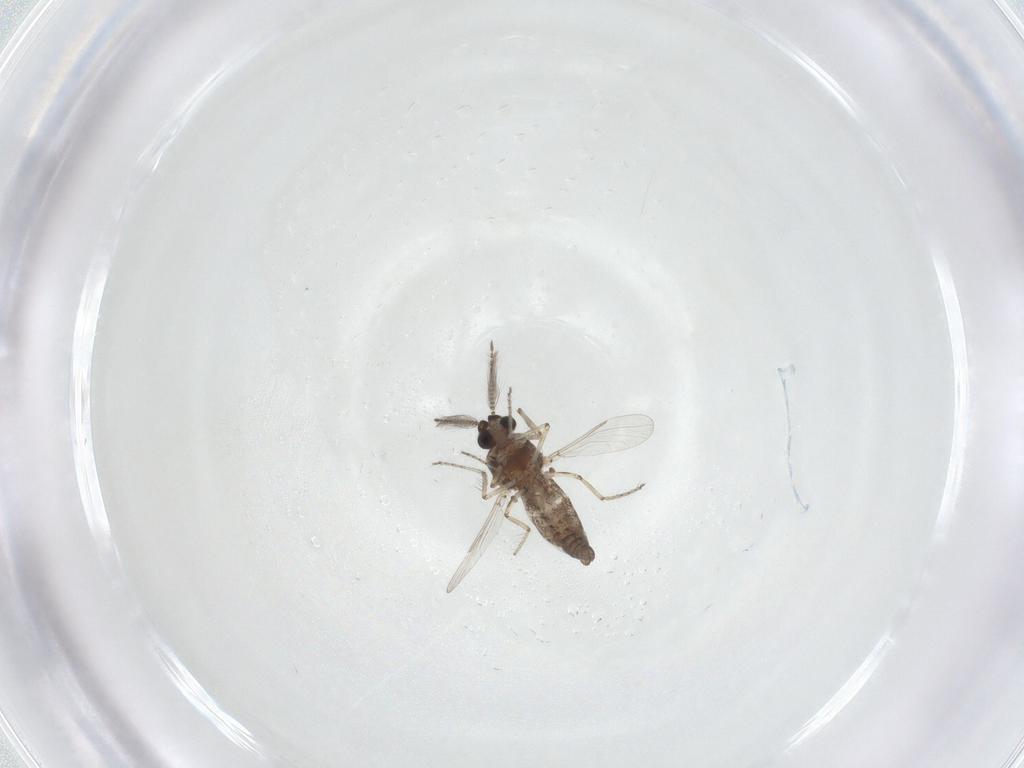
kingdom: Animalia
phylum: Arthropoda
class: Insecta
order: Diptera
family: Ceratopogonidae
